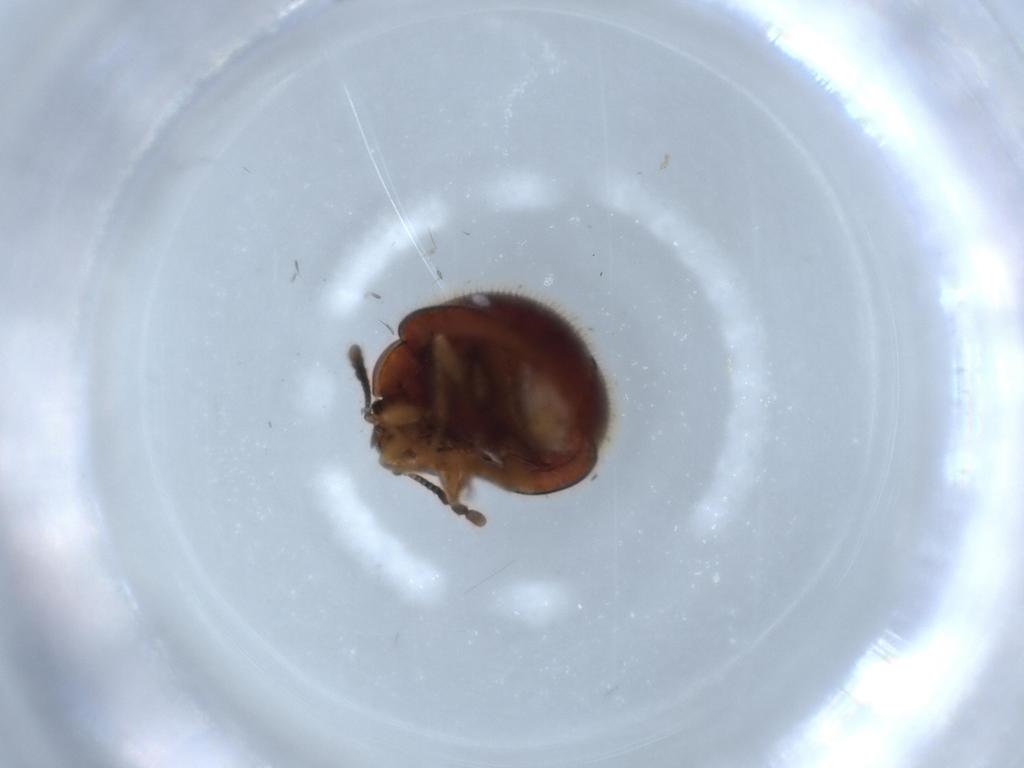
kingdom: Animalia
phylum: Arthropoda
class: Insecta
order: Coleoptera
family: Anamorphidae
